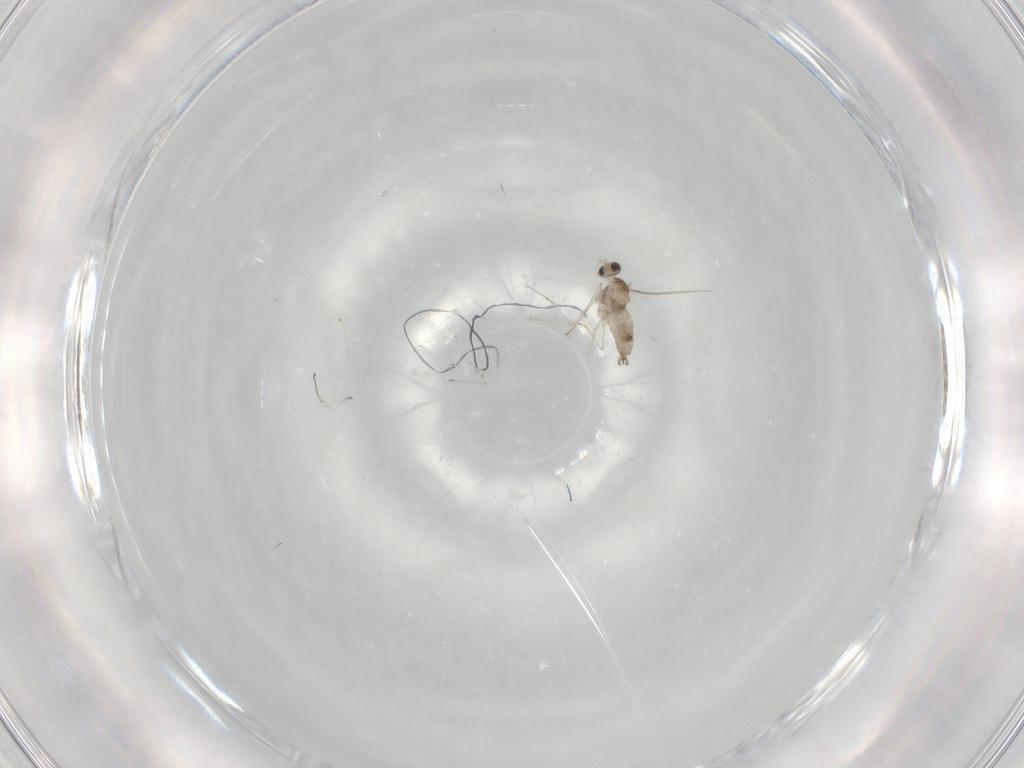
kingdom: Animalia
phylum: Arthropoda
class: Insecta
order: Diptera
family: Cecidomyiidae
